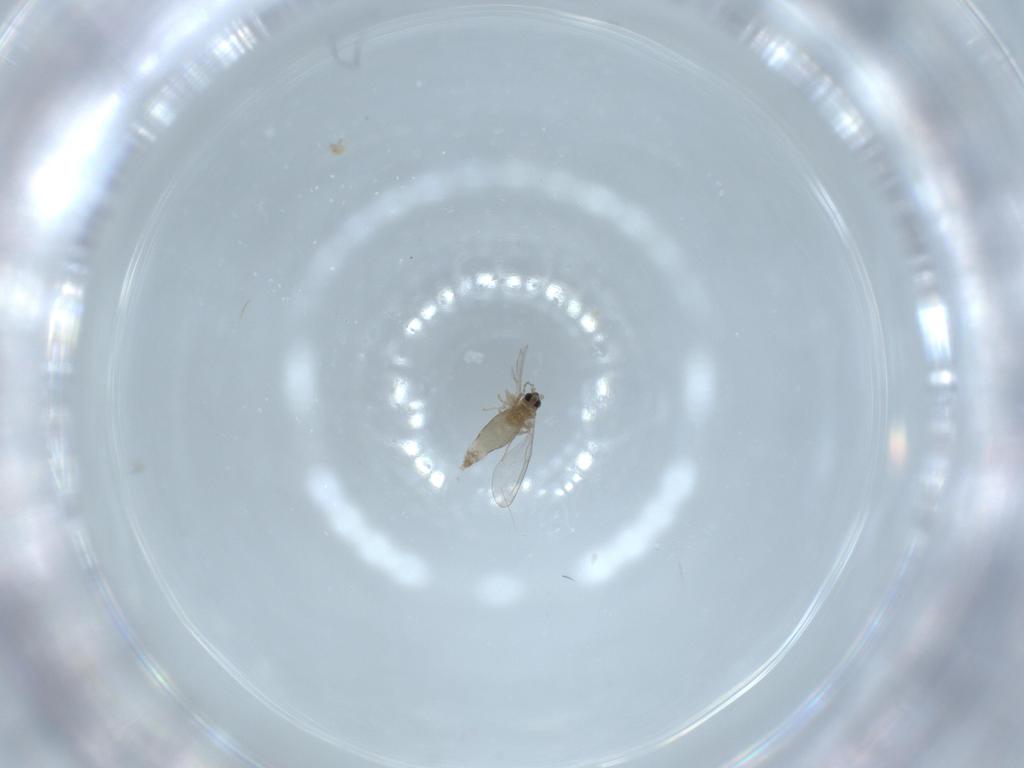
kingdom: Animalia
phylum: Arthropoda
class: Insecta
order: Diptera
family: Cecidomyiidae
